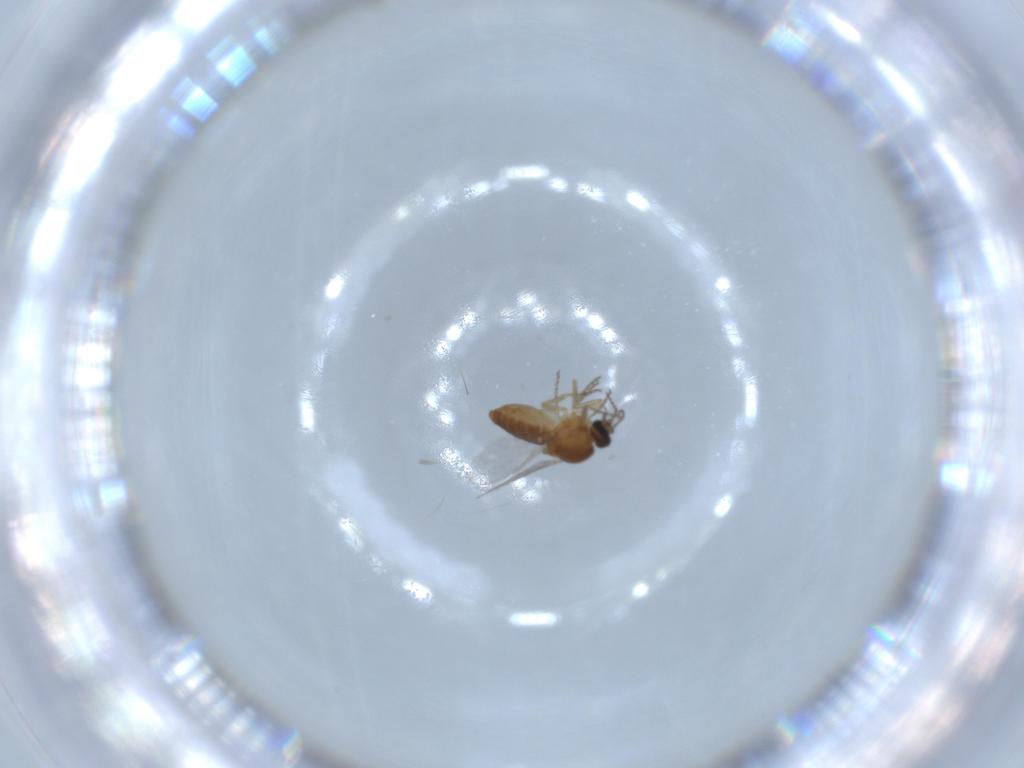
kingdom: Animalia
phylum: Arthropoda
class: Insecta
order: Diptera
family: Ceratopogonidae
